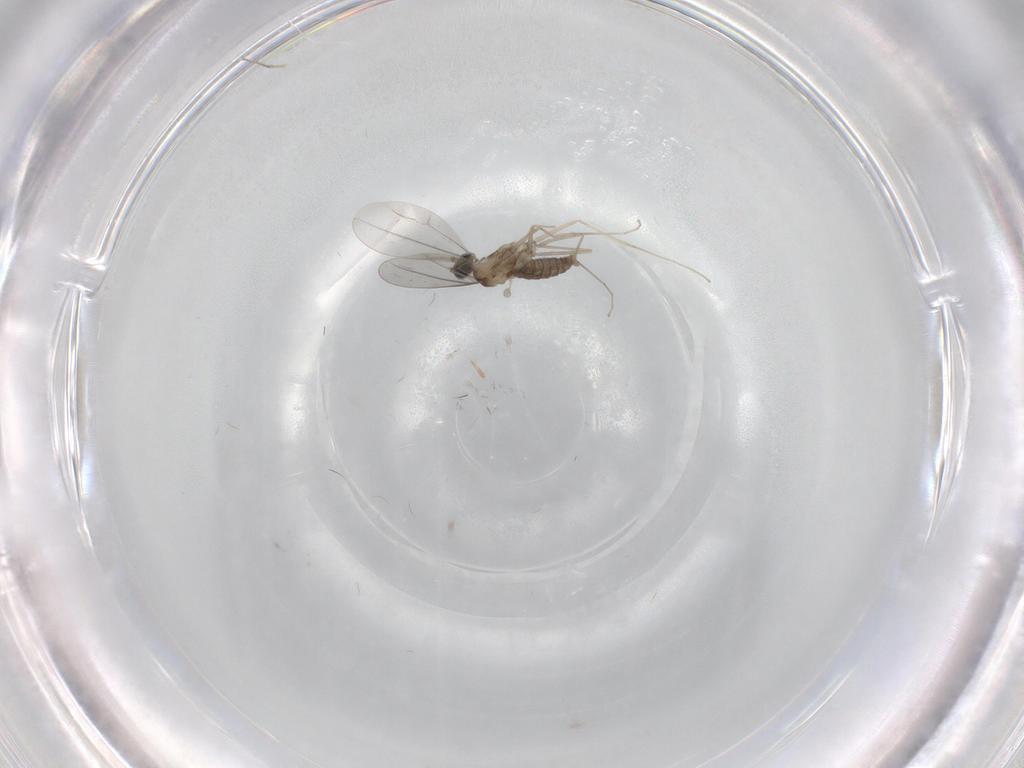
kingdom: Animalia
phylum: Arthropoda
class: Insecta
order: Diptera
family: Cecidomyiidae
